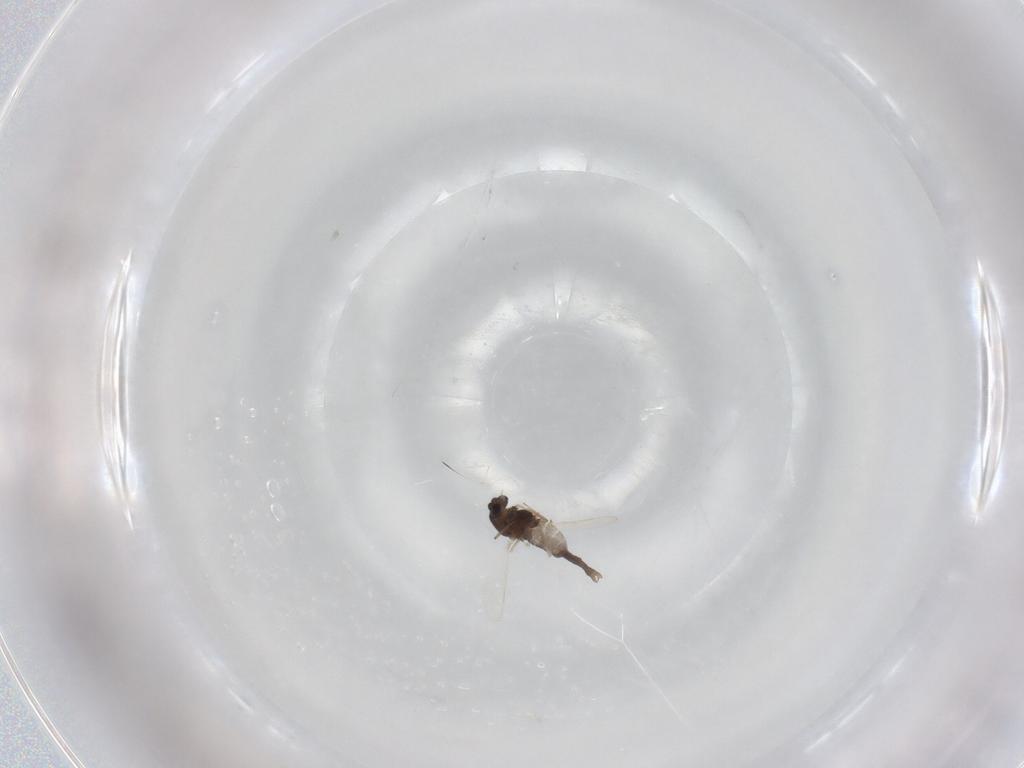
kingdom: Animalia
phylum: Arthropoda
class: Insecta
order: Diptera
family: Chironomidae
